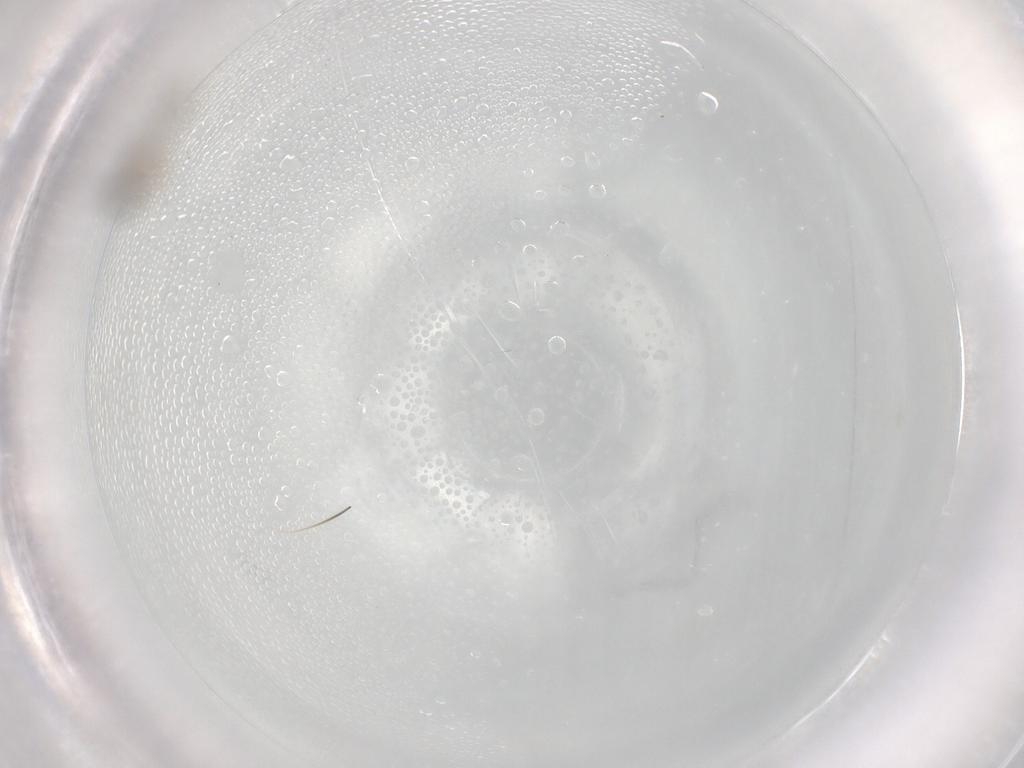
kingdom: Animalia
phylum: Arthropoda
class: Insecta
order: Diptera
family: Cecidomyiidae
